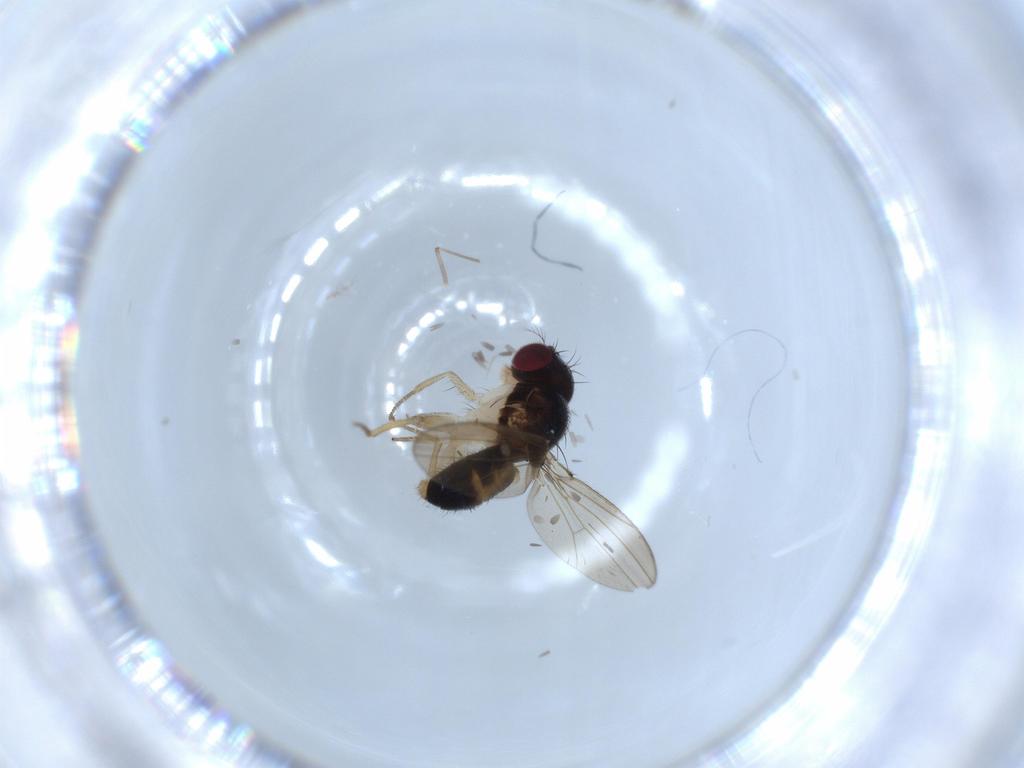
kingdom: Animalia
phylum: Arthropoda
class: Insecta
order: Diptera
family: Drosophilidae
